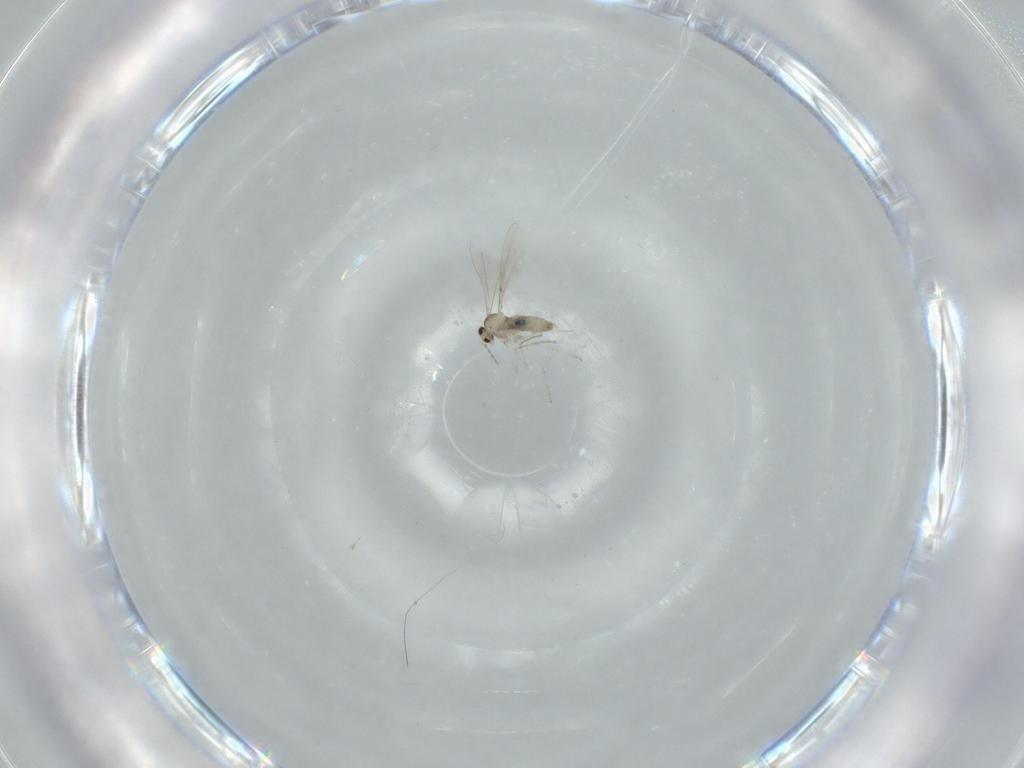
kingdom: Animalia
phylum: Arthropoda
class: Insecta
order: Diptera
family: Cecidomyiidae
